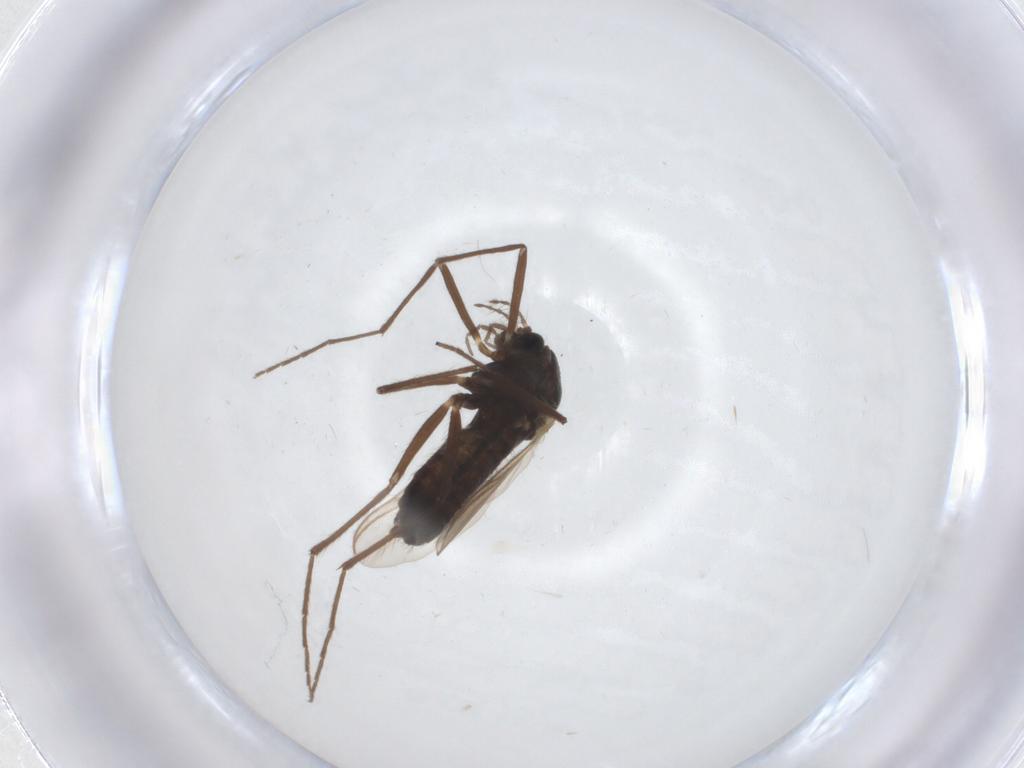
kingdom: Animalia
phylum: Arthropoda
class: Insecta
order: Diptera
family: Chironomidae
